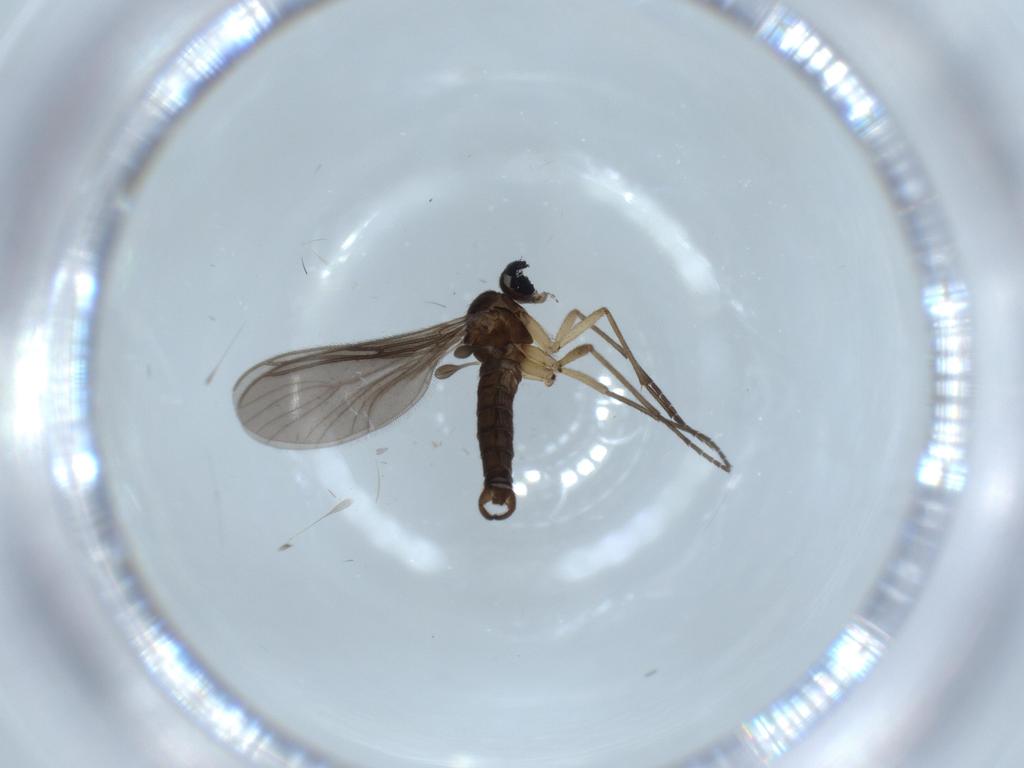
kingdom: Animalia
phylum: Arthropoda
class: Insecta
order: Diptera
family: Sciaridae
